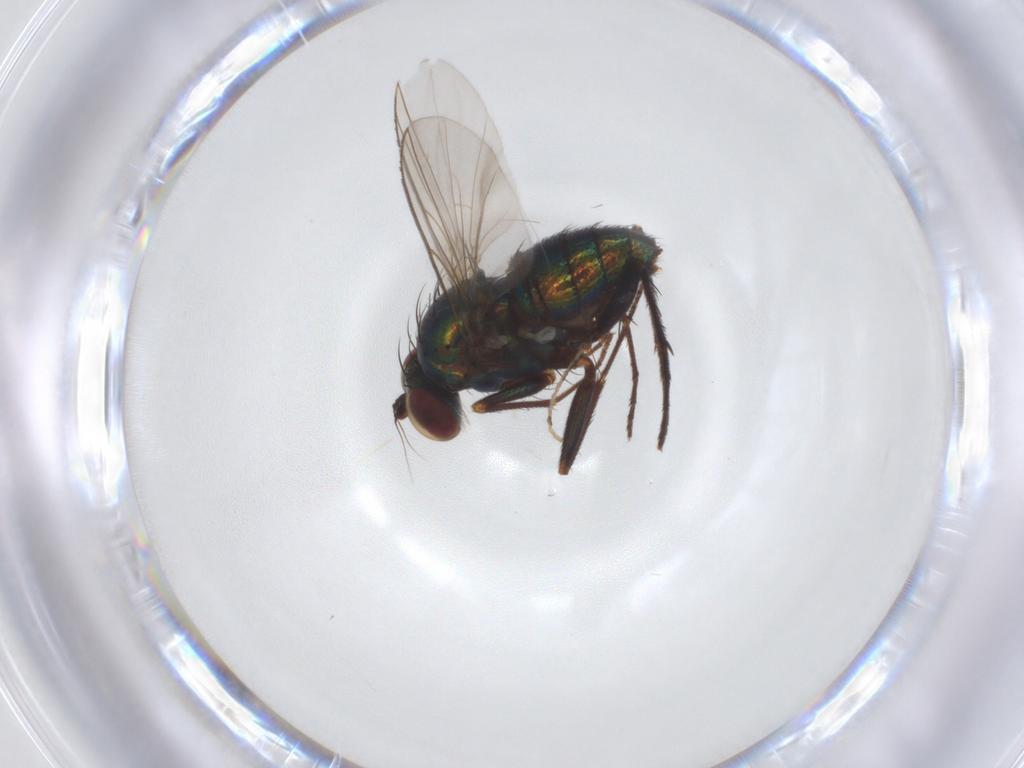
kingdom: Animalia
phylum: Arthropoda
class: Insecta
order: Diptera
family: Dolichopodidae
